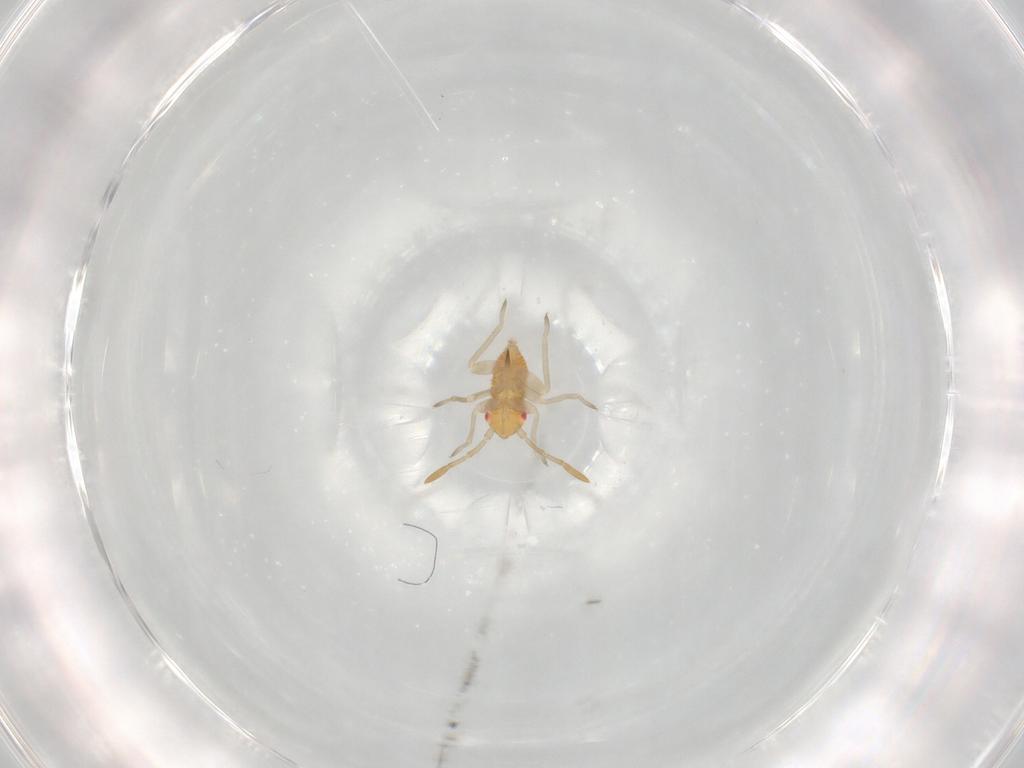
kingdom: Animalia
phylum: Arthropoda
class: Insecta
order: Hemiptera
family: Miridae
